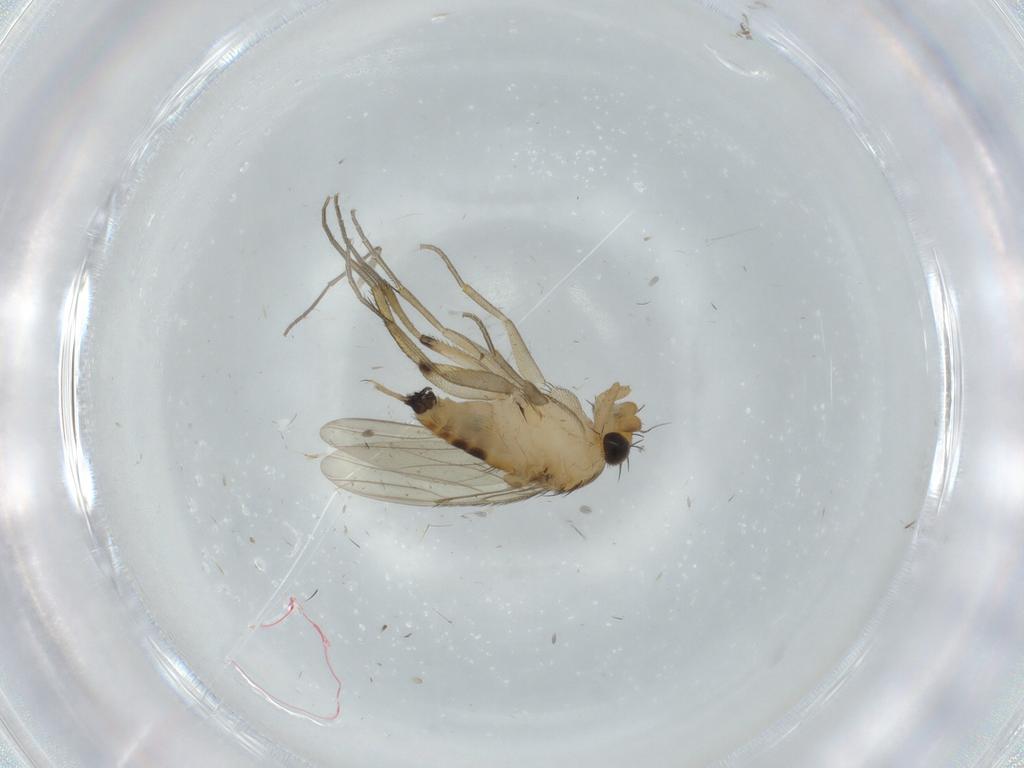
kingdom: Animalia
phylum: Arthropoda
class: Insecta
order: Diptera
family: Phoridae
